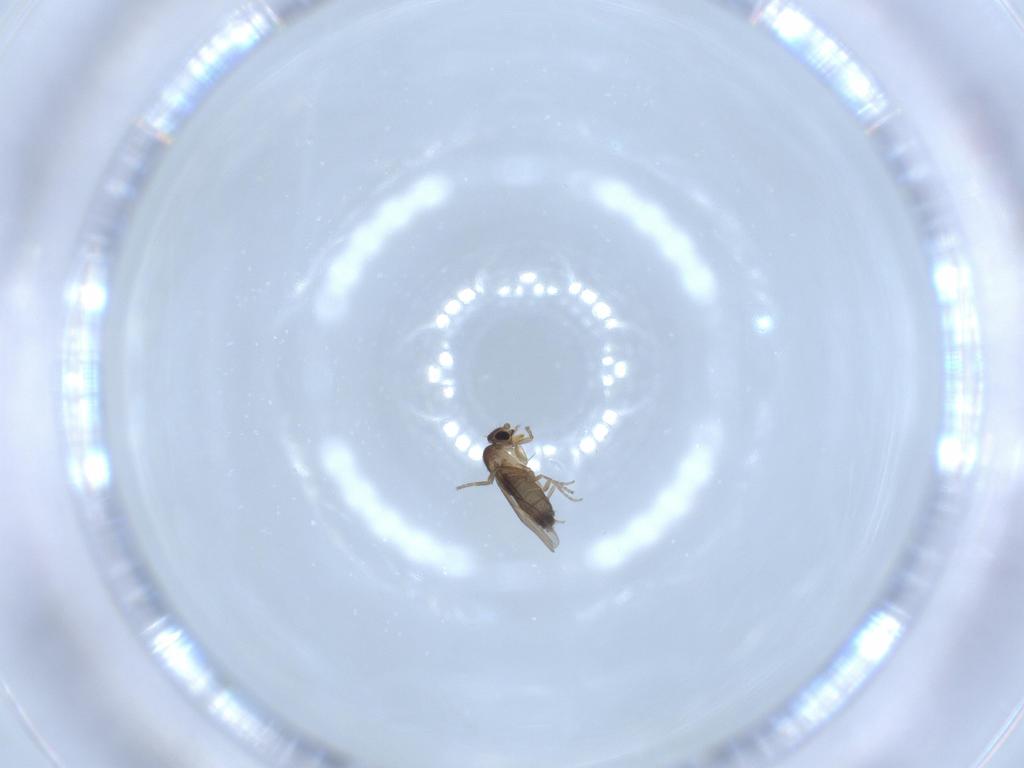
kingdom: Animalia
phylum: Arthropoda
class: Insecta
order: Diptera
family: Phoridae
